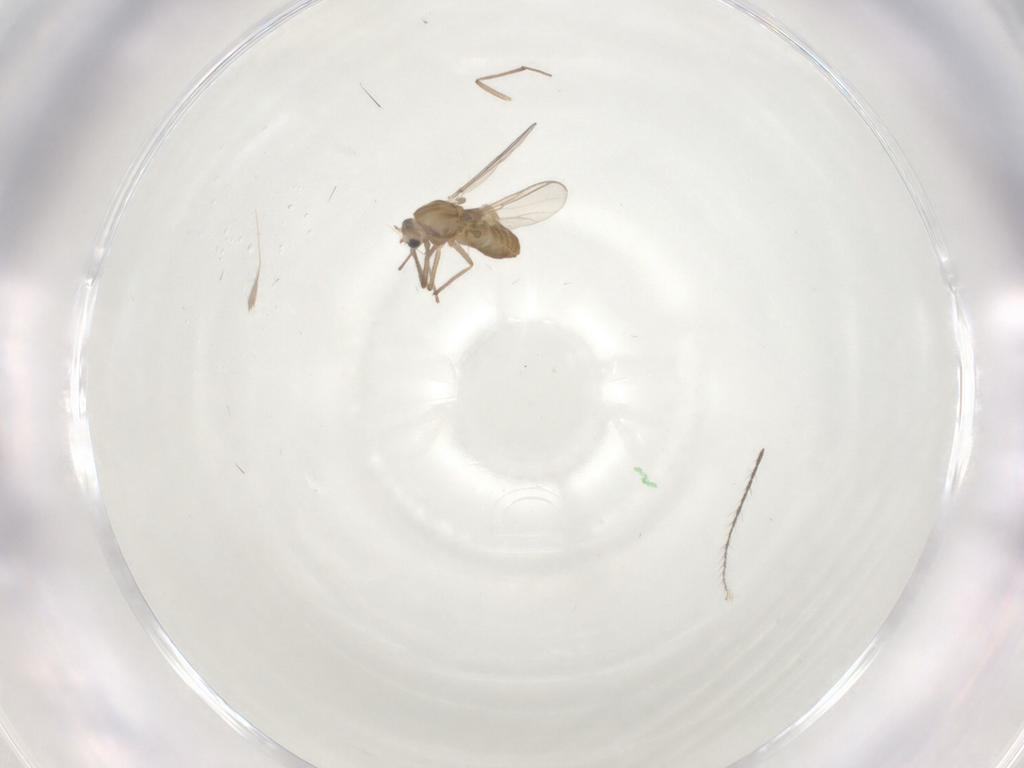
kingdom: Animalia
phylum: Arthropoda
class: Insecta
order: Diptera
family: Chironomidae
